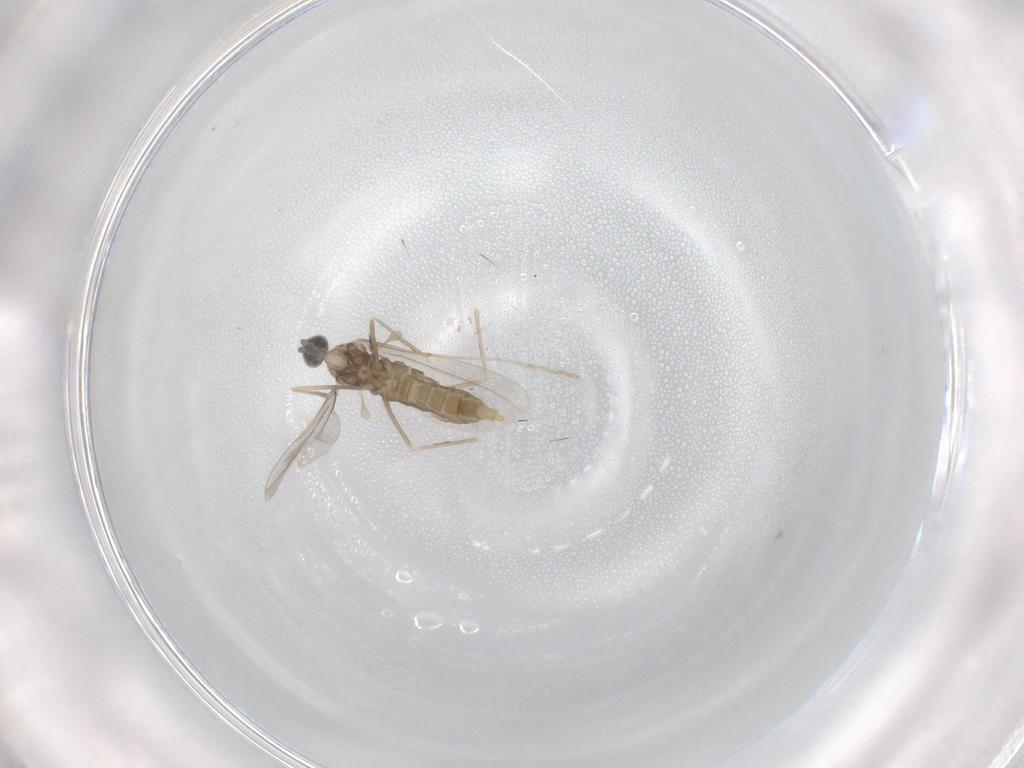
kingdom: Animalia
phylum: Arthropoda
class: Insecta
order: Diptera
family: Cecidomyiidae
